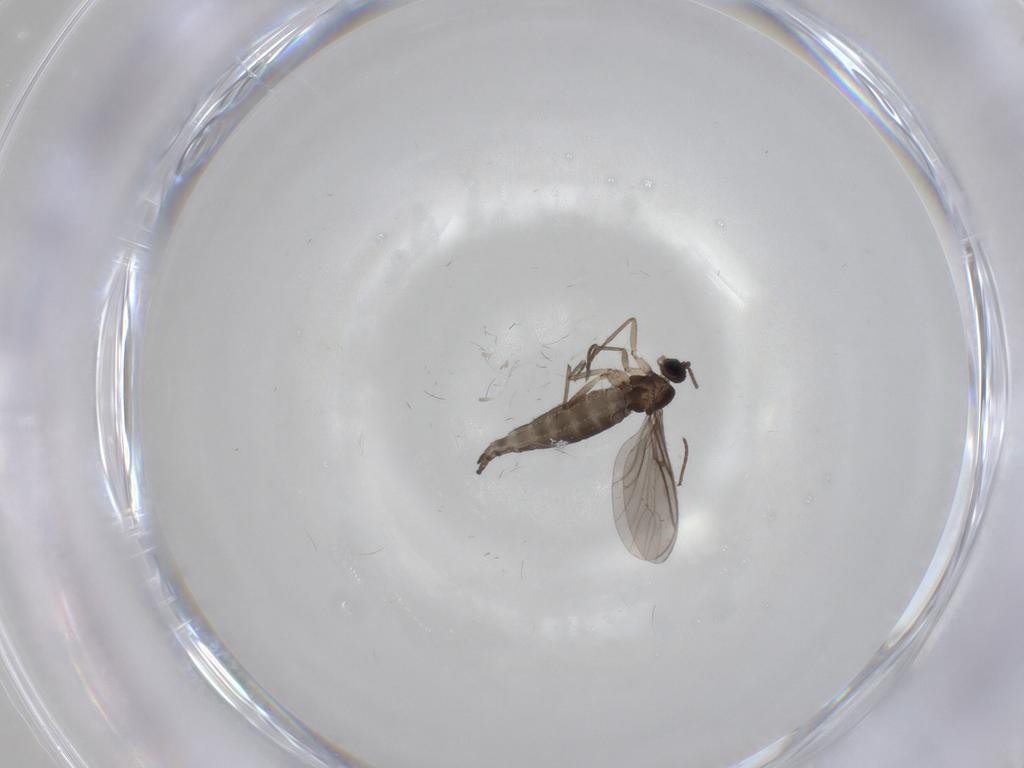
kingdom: Animalia
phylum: Arthropoda
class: Insecta
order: Diptera
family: Sciaridae
